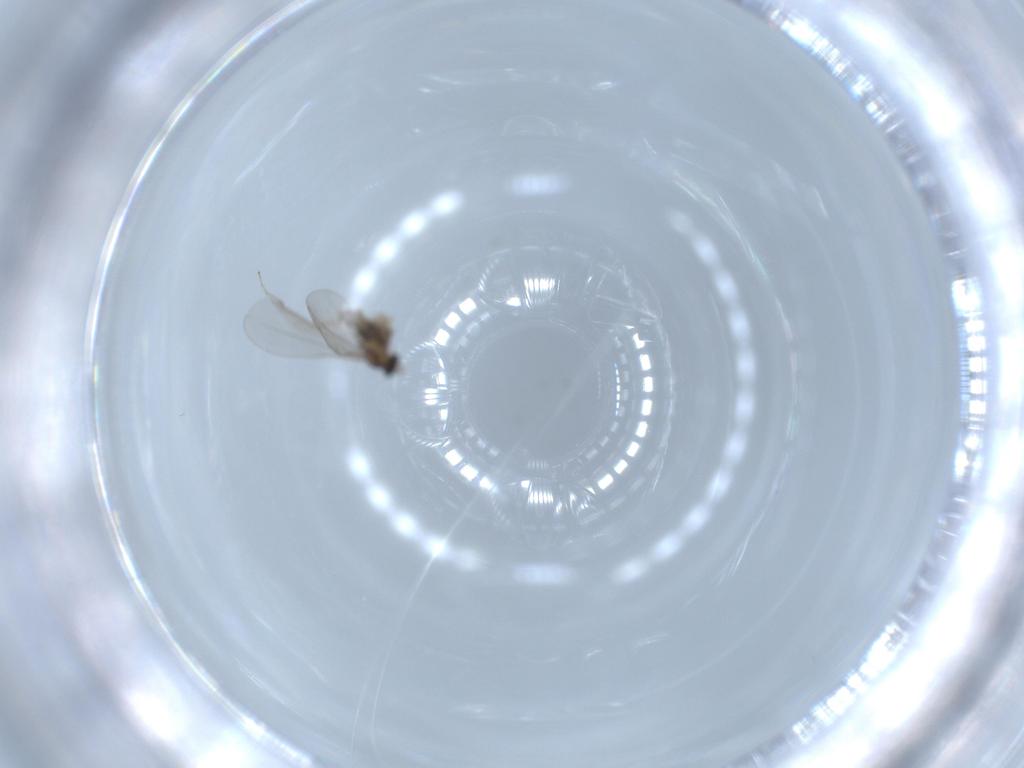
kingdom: Animalia
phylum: Arthropoda
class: Insecta
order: Diptera
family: Cecidomyiidae
